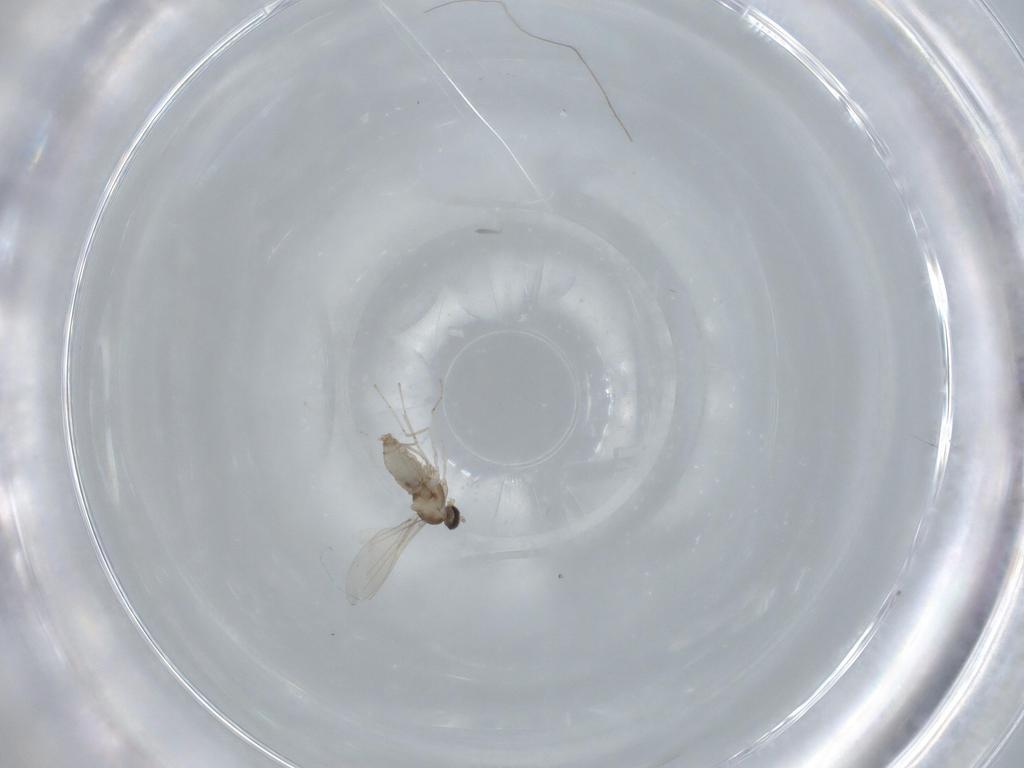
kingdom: Animalia
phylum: Arthropoda
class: Insecta
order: Diptera
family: Cecidomyiidae
